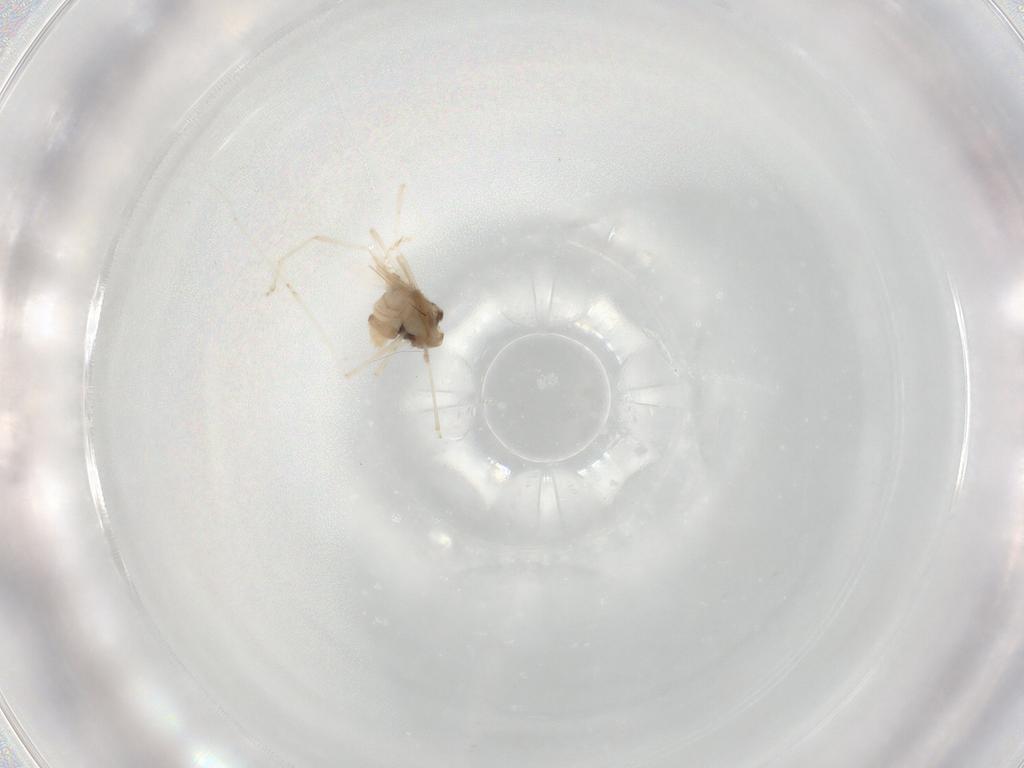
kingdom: Animalia
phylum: Arthropoda
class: Insecta
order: Diptera
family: Cecidomyiidae
